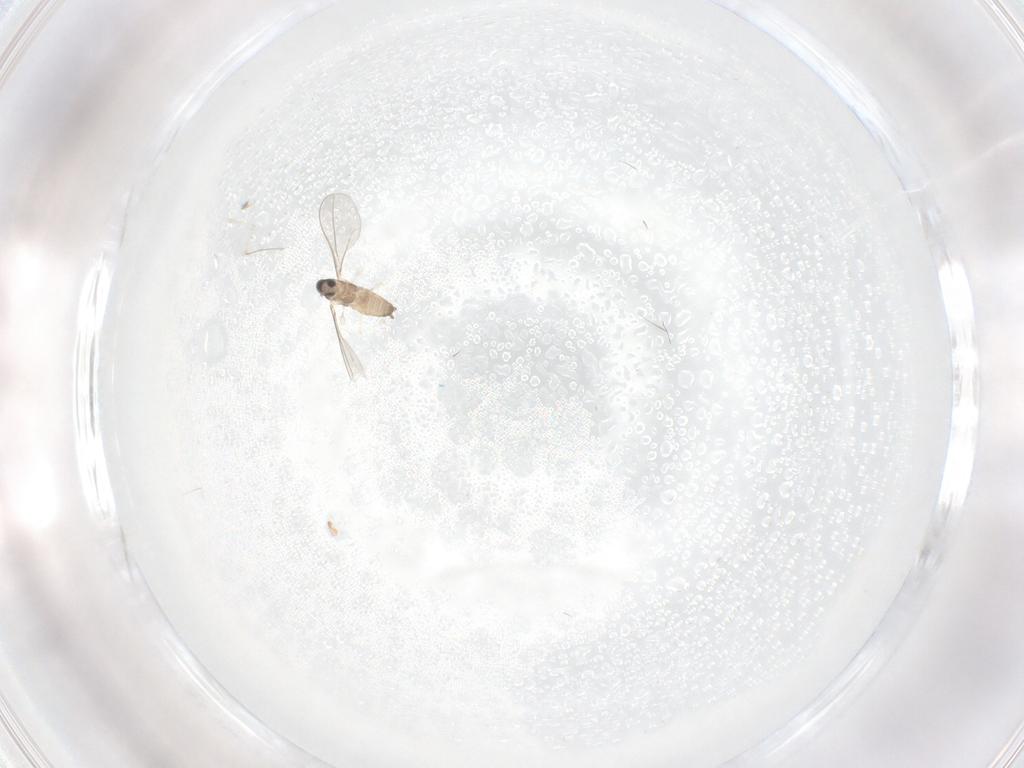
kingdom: Animalia
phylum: Arthropoda
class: Insecta
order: Diptera
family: Cecidomyiidae
